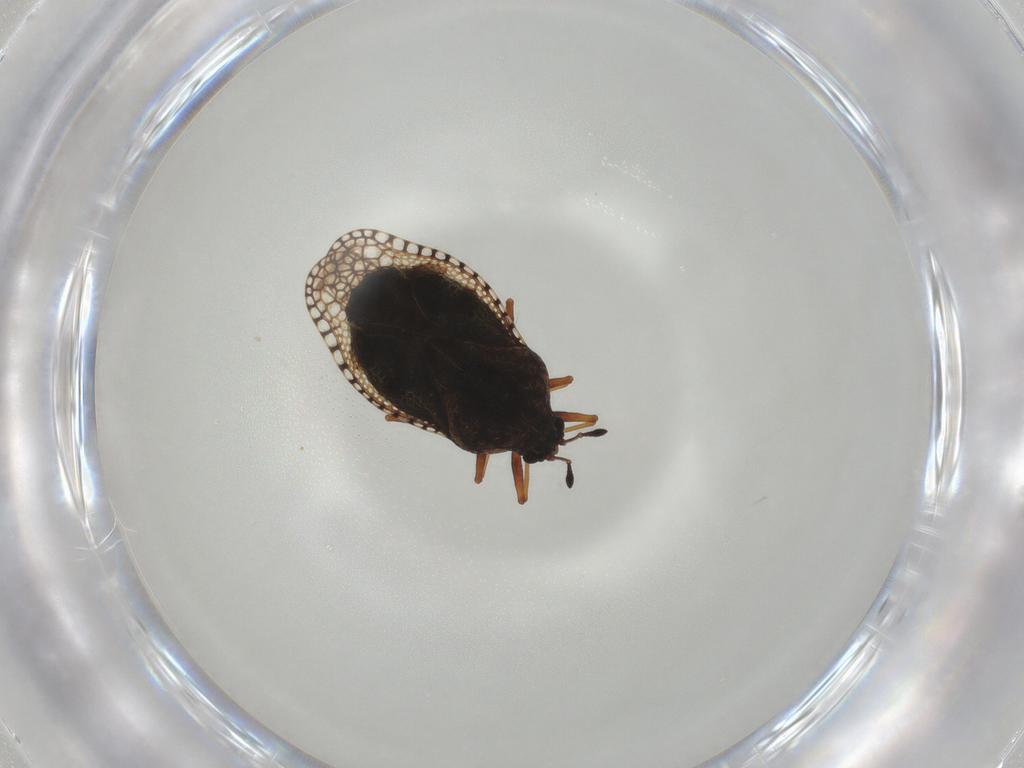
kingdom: Animalia
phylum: Arthropoda
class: Insecta
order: Hemiptera
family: Tingidae
